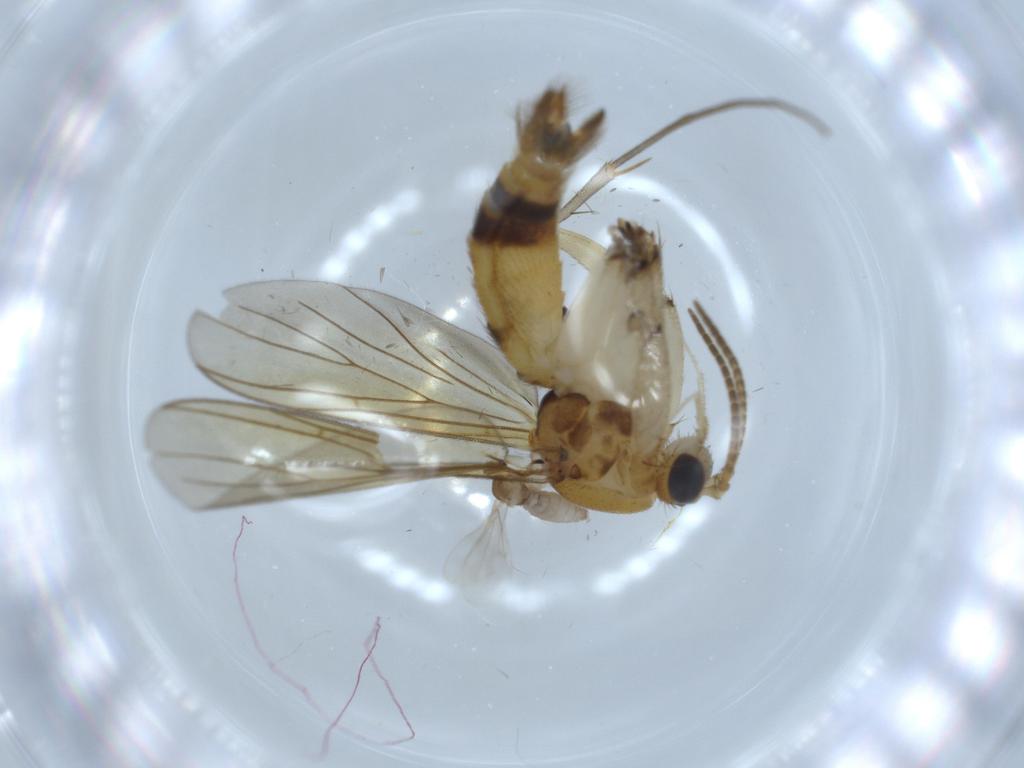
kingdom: Animalia
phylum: Arthropoda
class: Insecta
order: Diptera
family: Mycetophilidae
